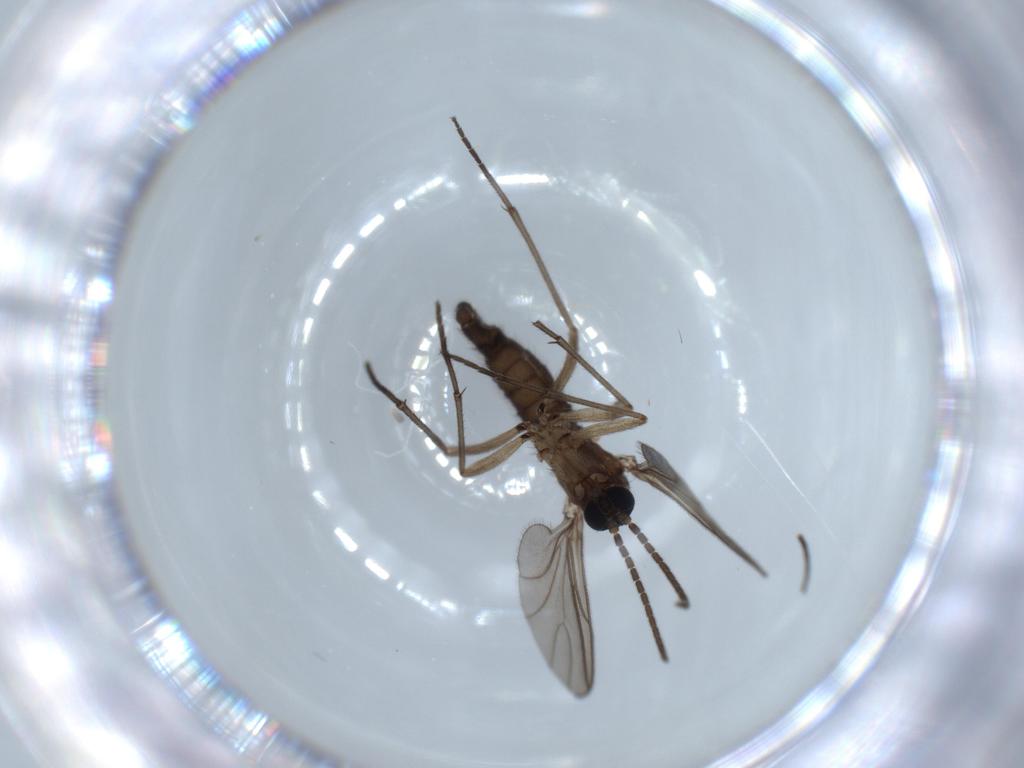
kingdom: Animalia
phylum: Arthropoda
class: Insecta
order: Diptera
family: Sciaridae
